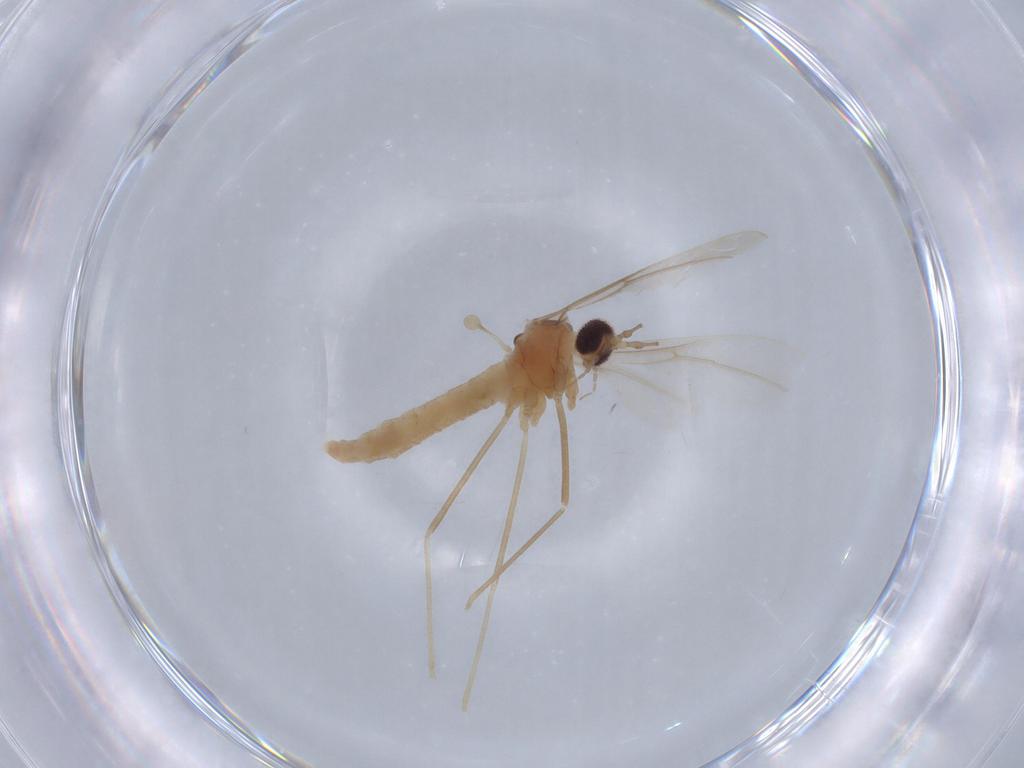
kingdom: Animalia
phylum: Arthropoda
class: Insecta
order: Diptera
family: Cecidomyiidae
